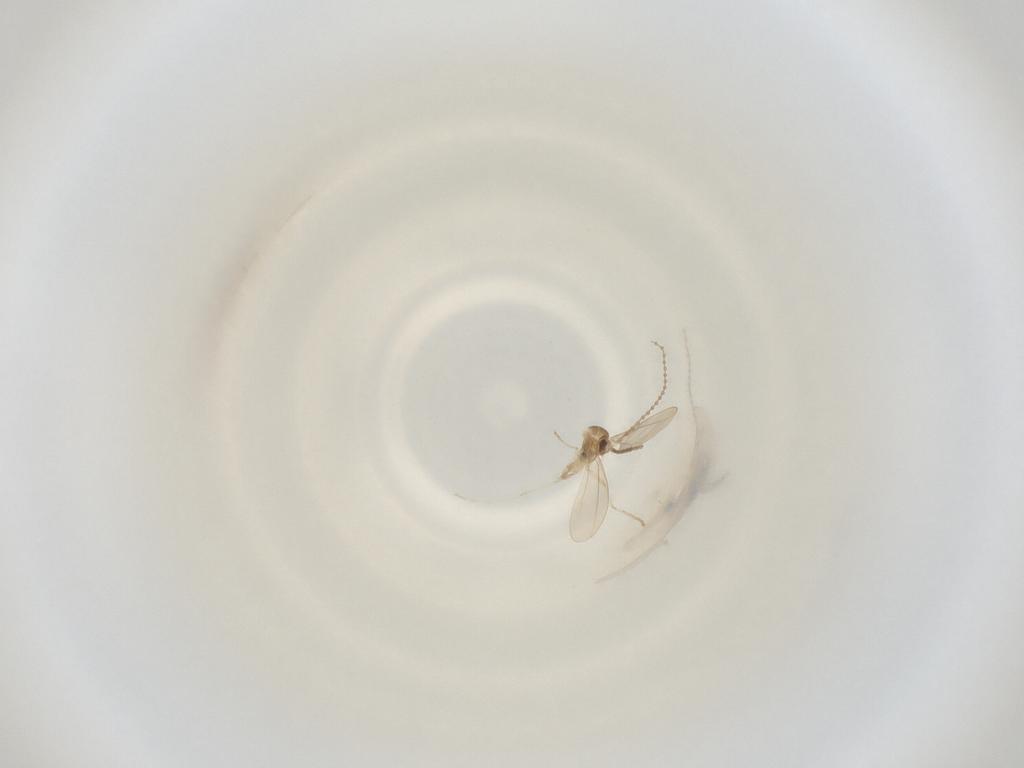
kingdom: Animalia
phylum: Arthropoda
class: Insecta
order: Diptera
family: Cecidomyiidae
